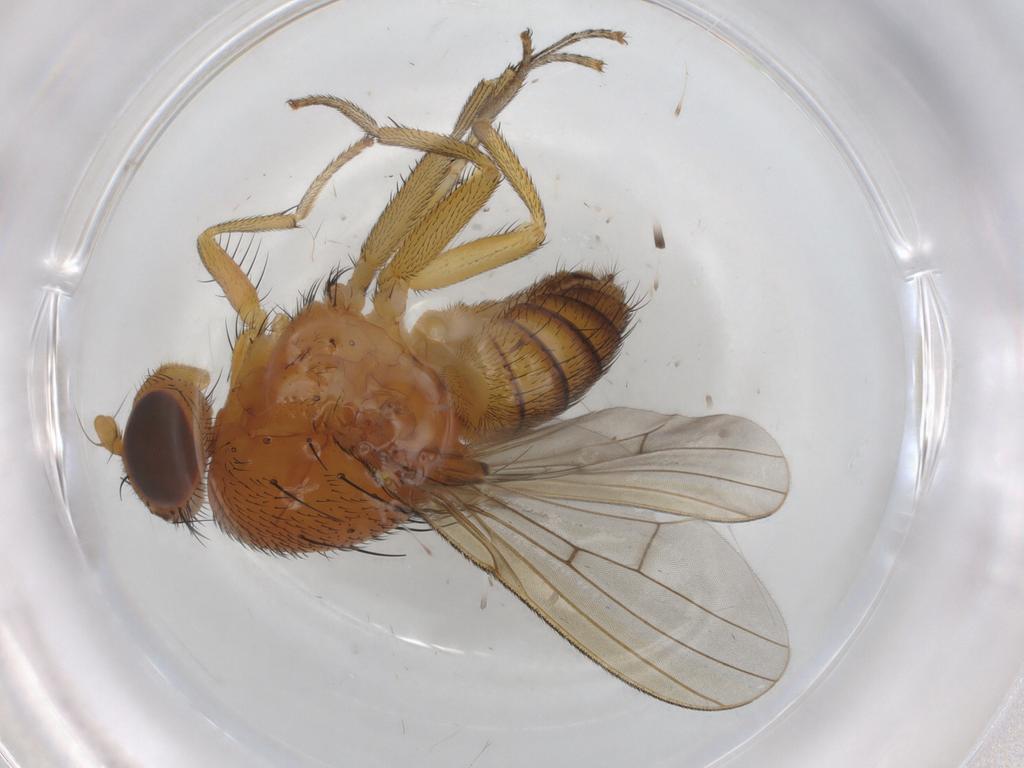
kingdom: Animalia
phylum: Arthropoda
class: Insecta
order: Diptera
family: Lauxaniidae
